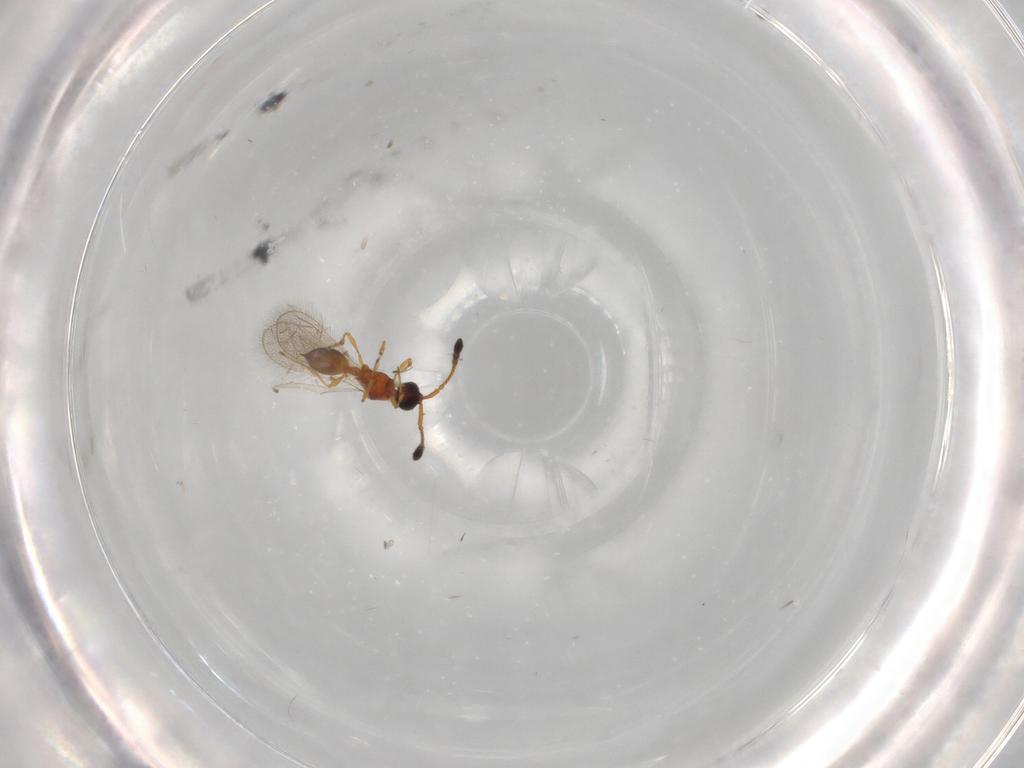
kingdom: Animalia
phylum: Arthropoda
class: Insecta
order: Hymenoptera
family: Diapriidae
